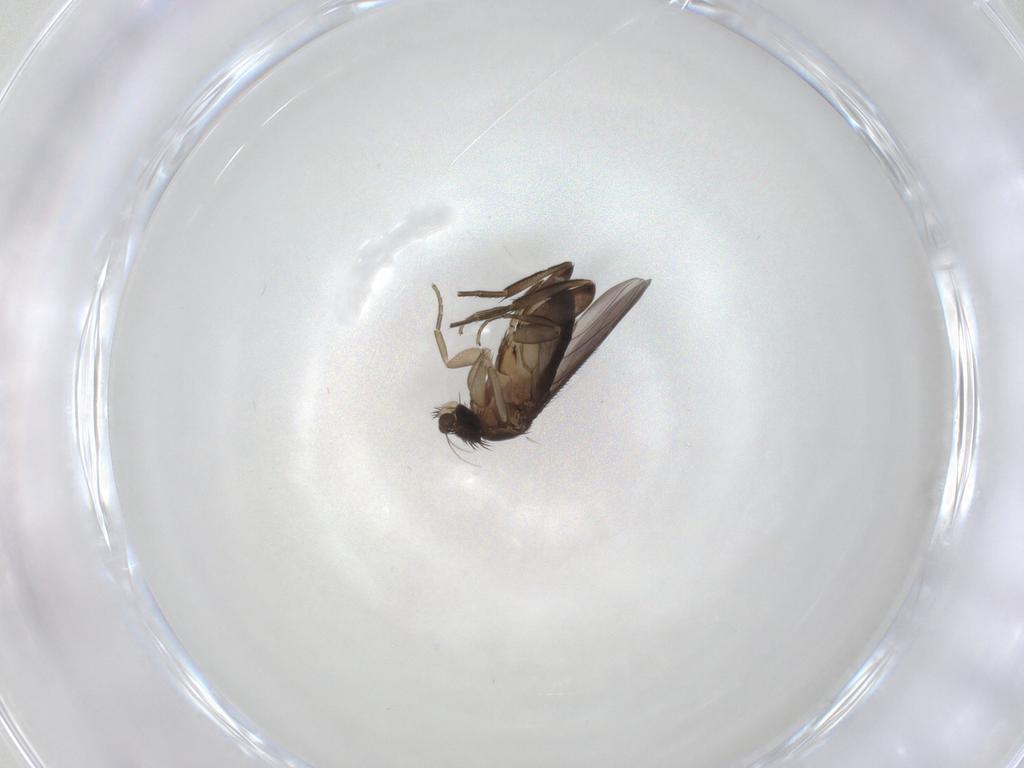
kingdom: Animalia
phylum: Arthropoda
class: Insecta
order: Diptera
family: Phoridae
